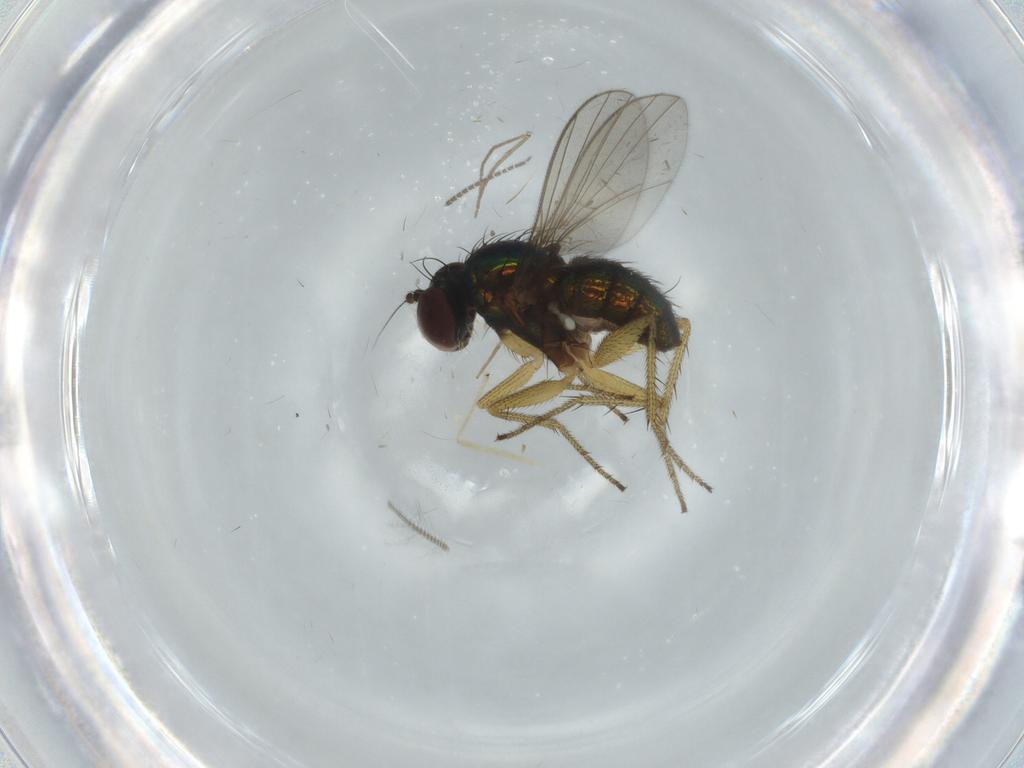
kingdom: Animalia
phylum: Arthropoda
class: Insecta
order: Diptera
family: Sciaridae
